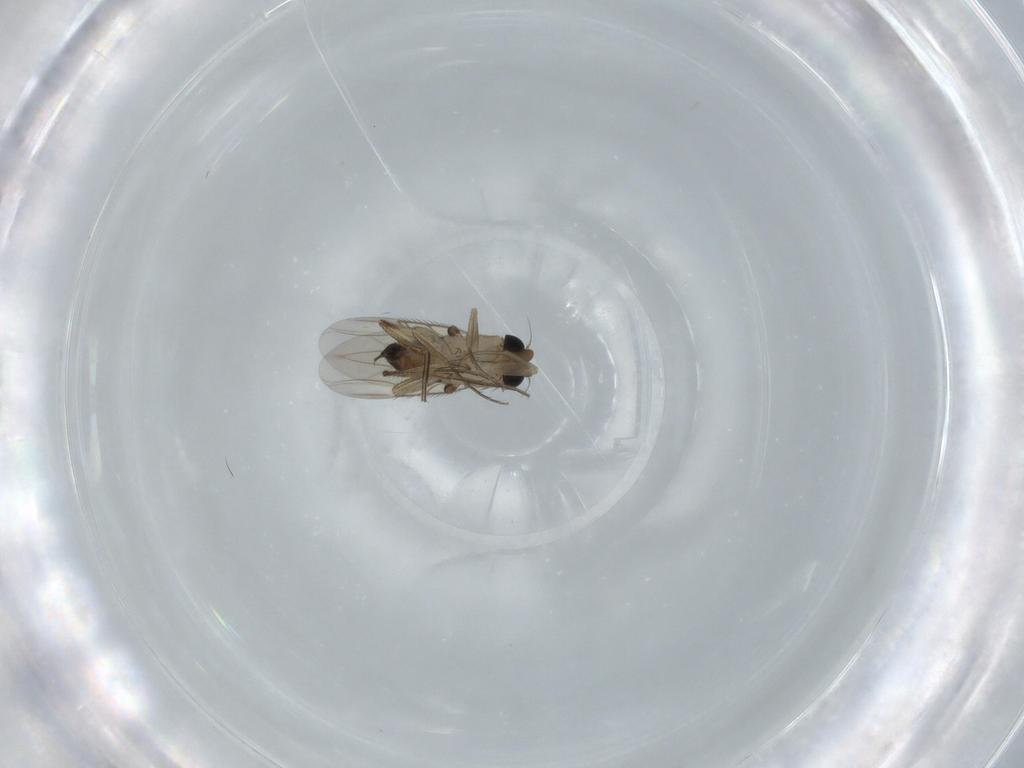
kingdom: Animalia
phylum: Arthropoda
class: Insecta
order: Diptera
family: Phoridae
